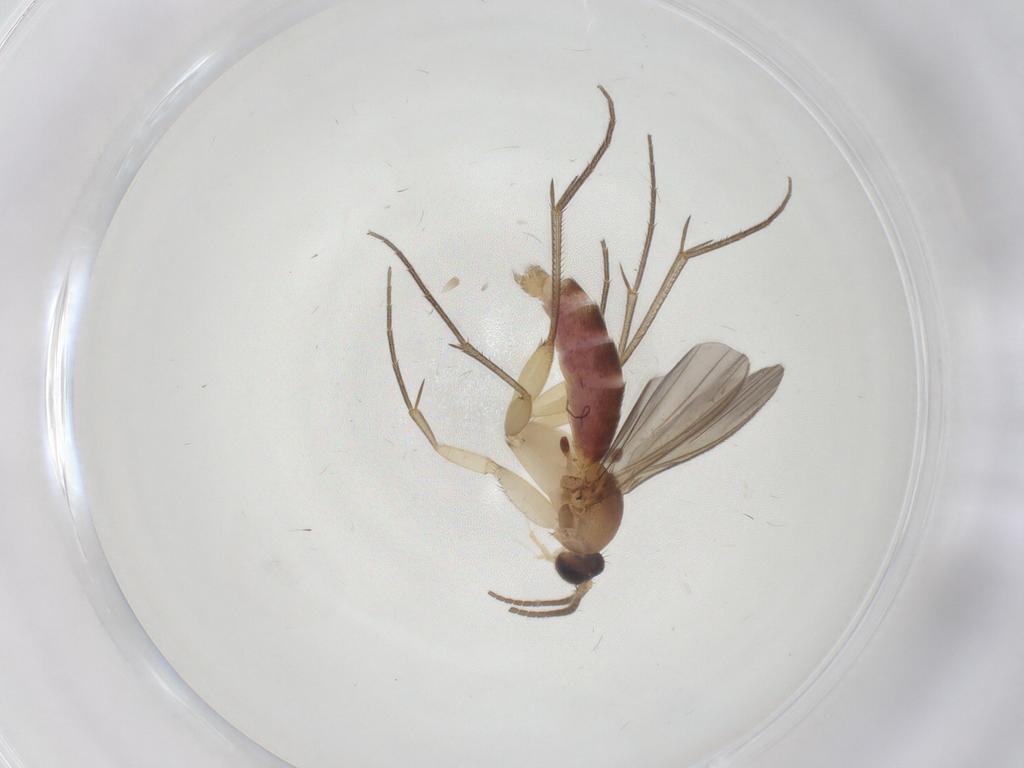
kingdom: Animalia
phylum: Arthropoda
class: Insecta
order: Diptera
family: Mycetophilidae
